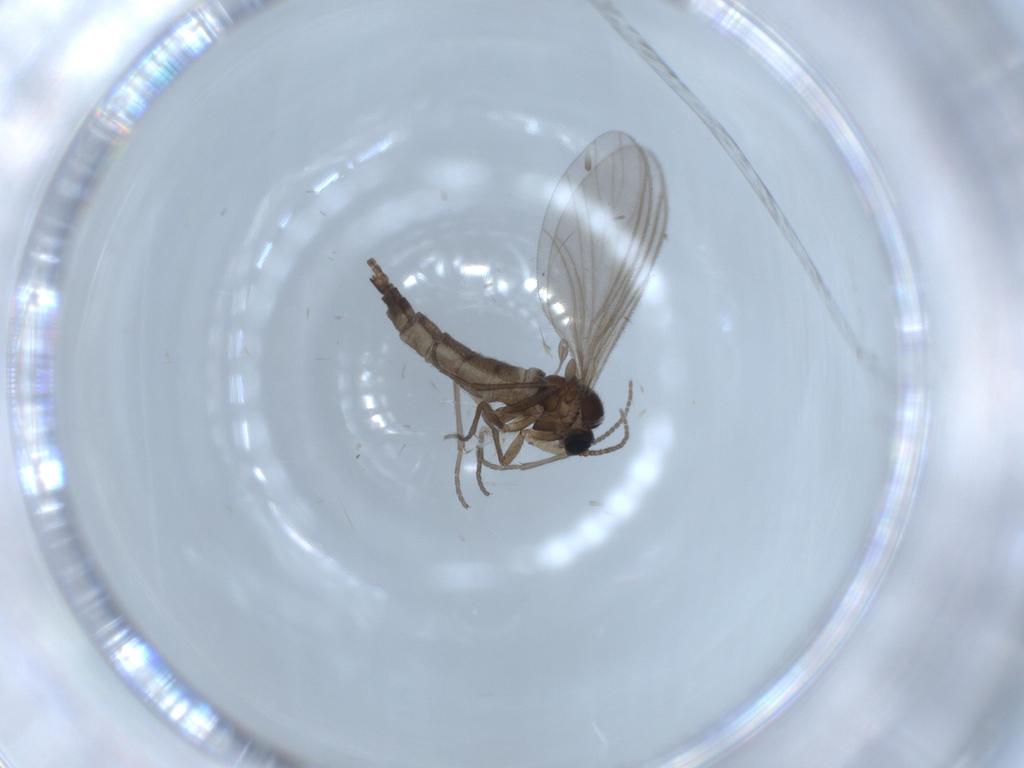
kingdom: Animalia
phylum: Arthropoda
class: Insecta
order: Diptera
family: Sciaridae
